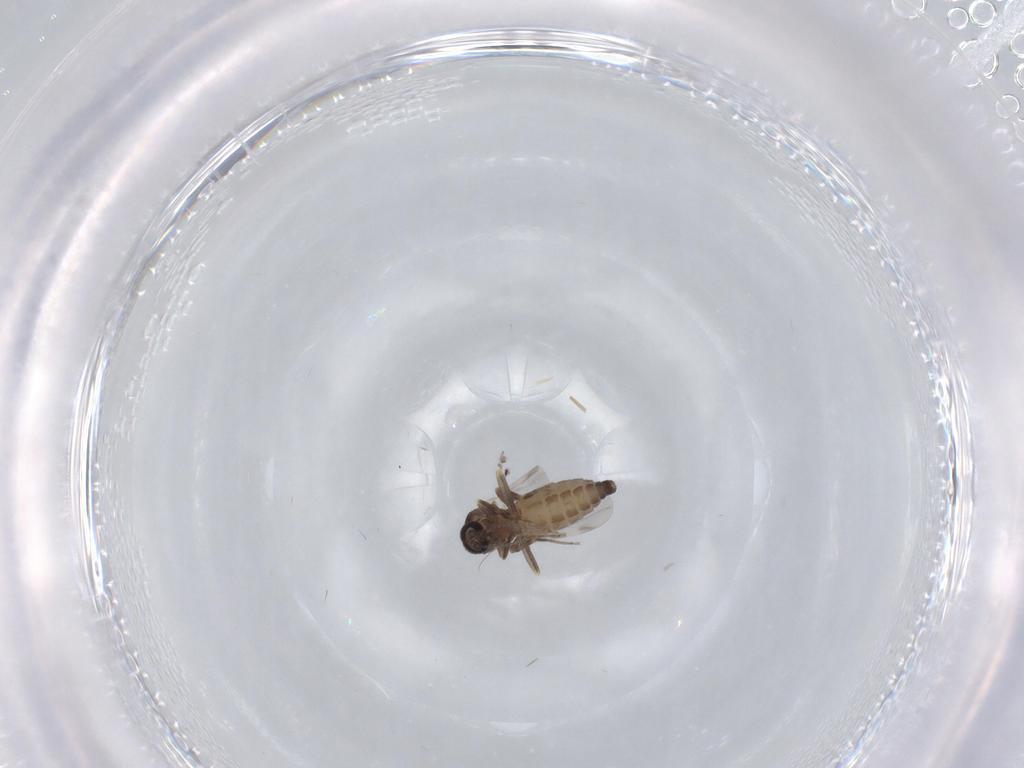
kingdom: Animalia
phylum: Arthropoda
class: Insecta
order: Diptera
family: Ceratopogonidae
